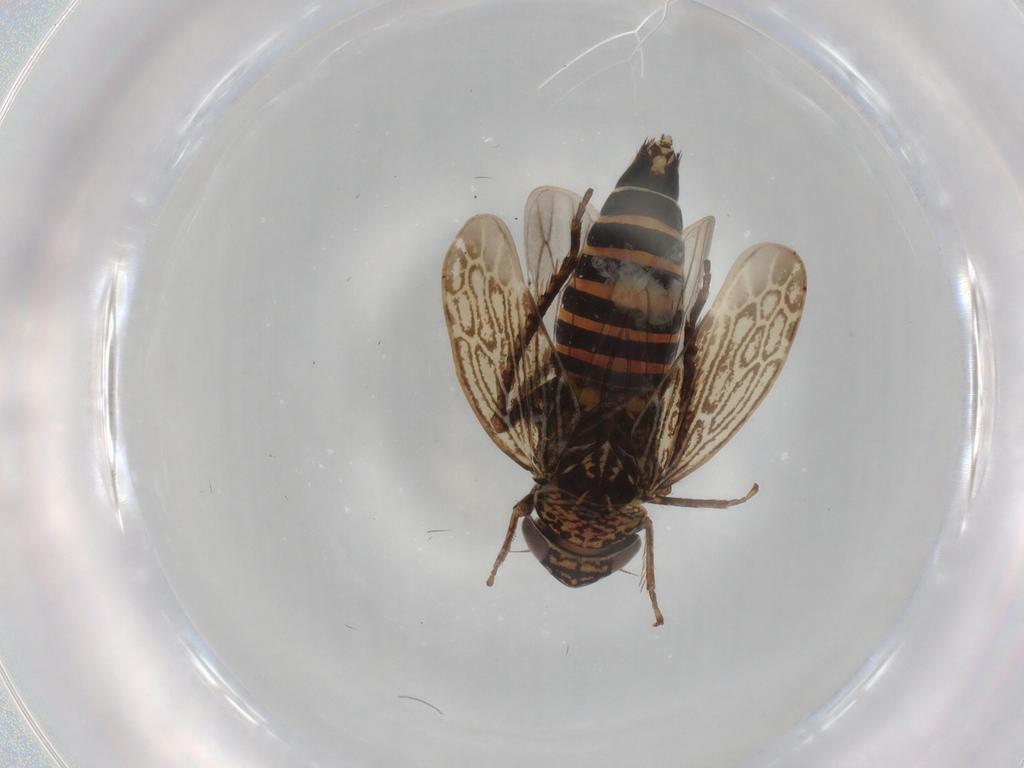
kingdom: Animalia
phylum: Arthropoda
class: Insecta
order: Hemiptera
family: Cicadellidae
